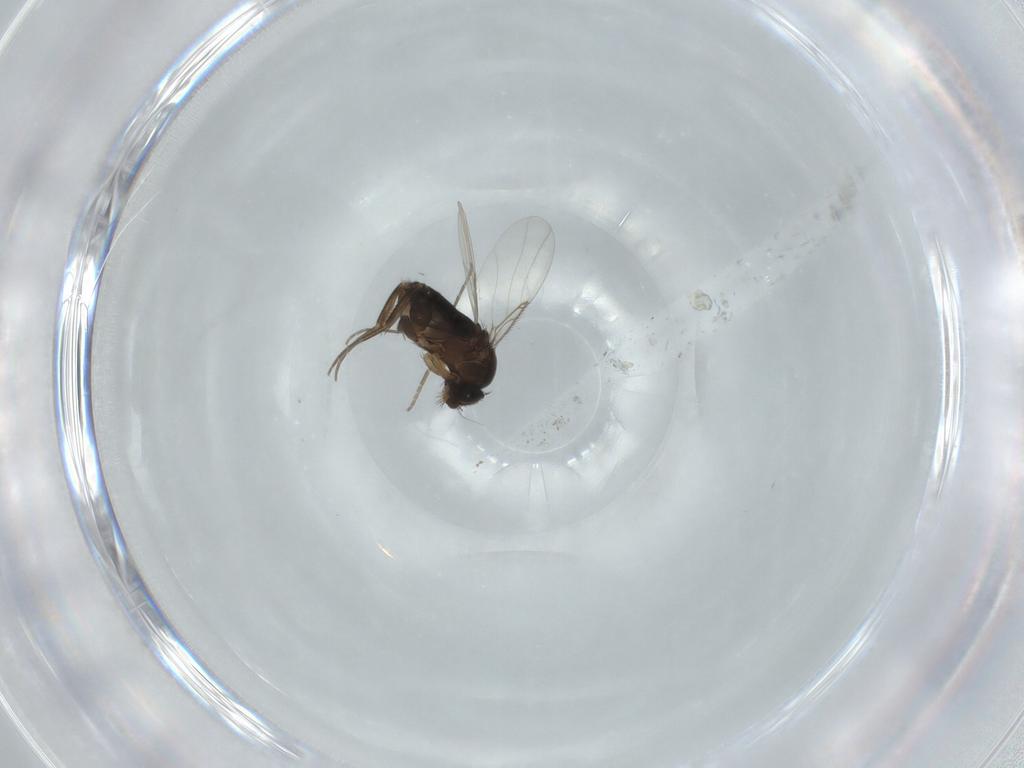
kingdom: Animalia
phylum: Arthropoda
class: Insecta
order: Diptera
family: Phoridae
